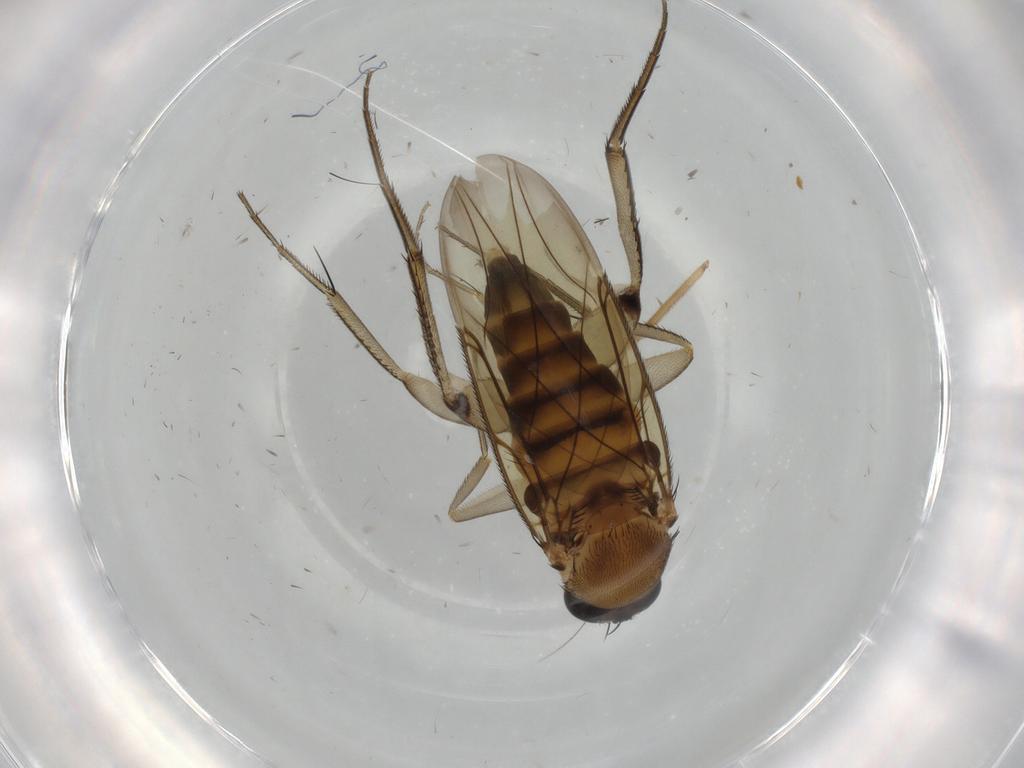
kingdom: Animalia
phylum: Arthropoda
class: Insecta
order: Diptera
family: Phoridae
